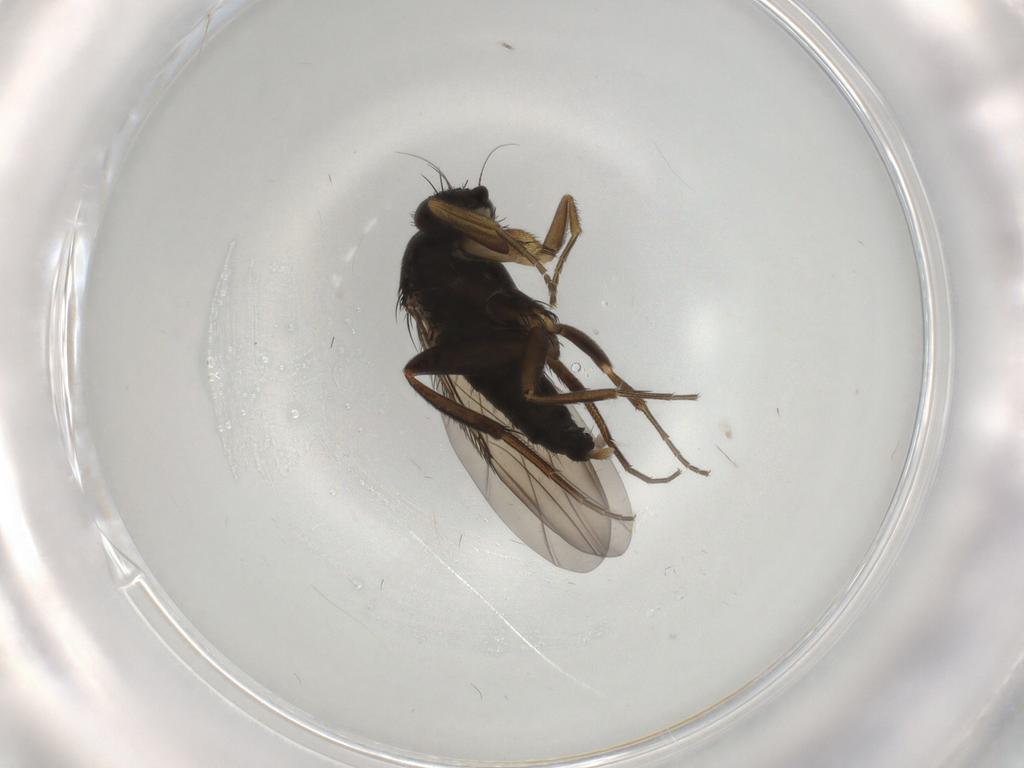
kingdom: Animalia
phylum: Arthropoda
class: Insecta
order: Diptera
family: Phoridae
